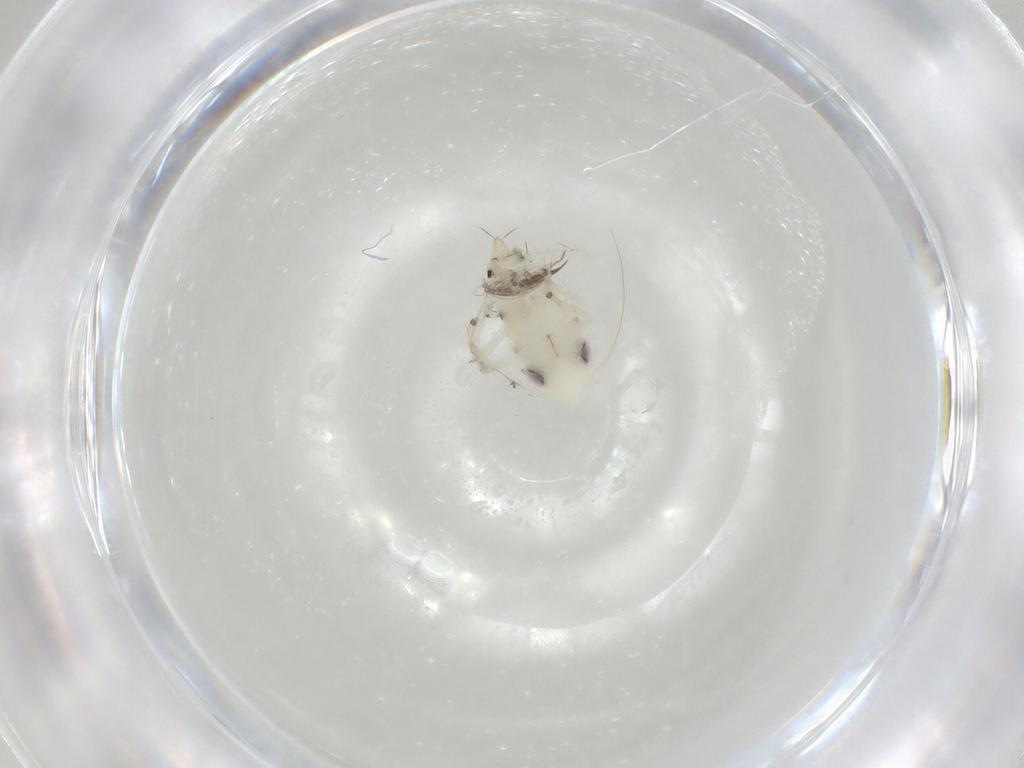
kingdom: Animalia
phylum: Arthropoda
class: Insecta
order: Hemiptera
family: Cicadellidae
